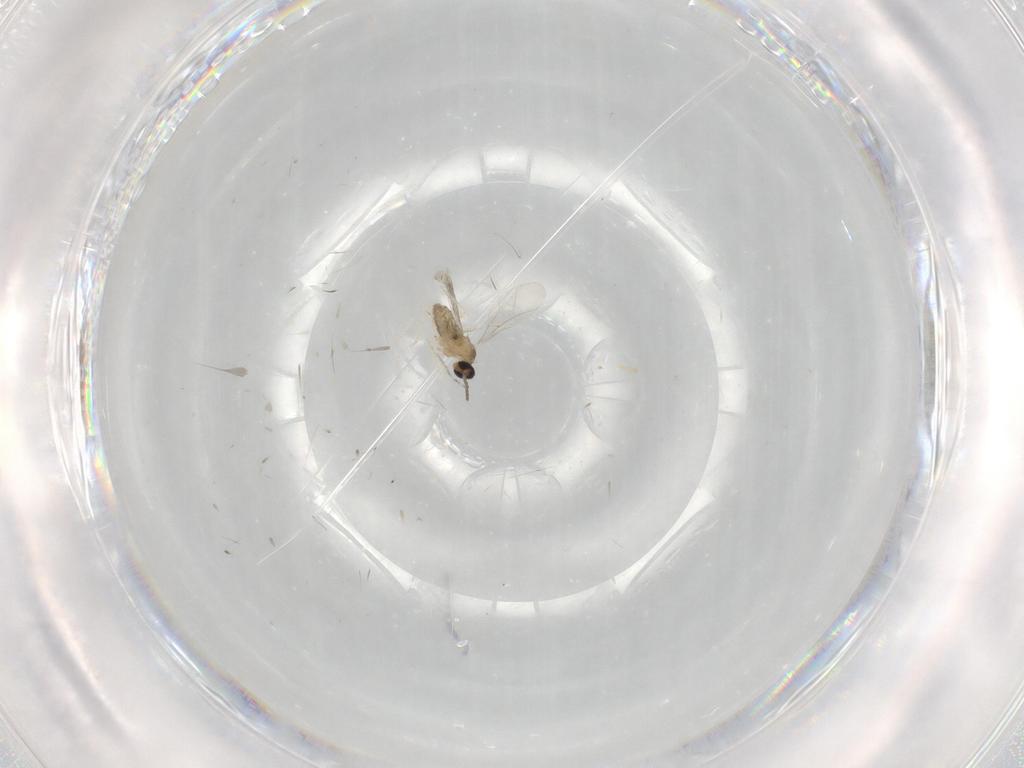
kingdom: Animalia
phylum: Arthropoda
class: Insecta
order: Diptera
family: Cecidomyiidae
